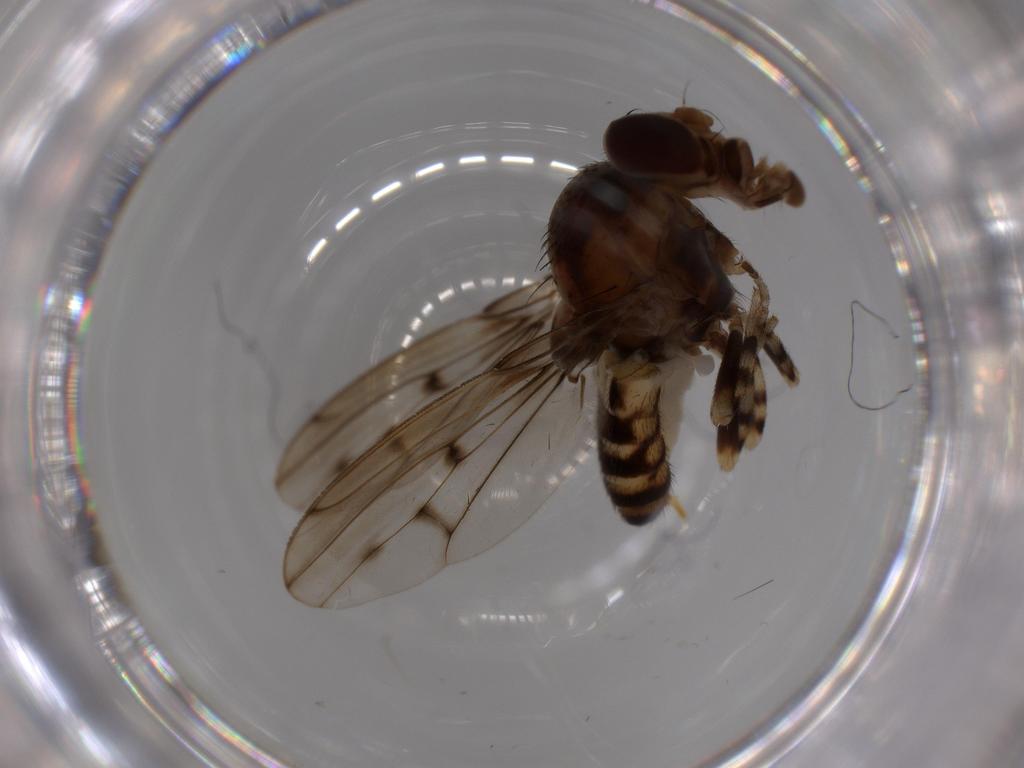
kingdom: Animalia
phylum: Arthropoda
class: Insecta
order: Diptera
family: Drosophilidae
